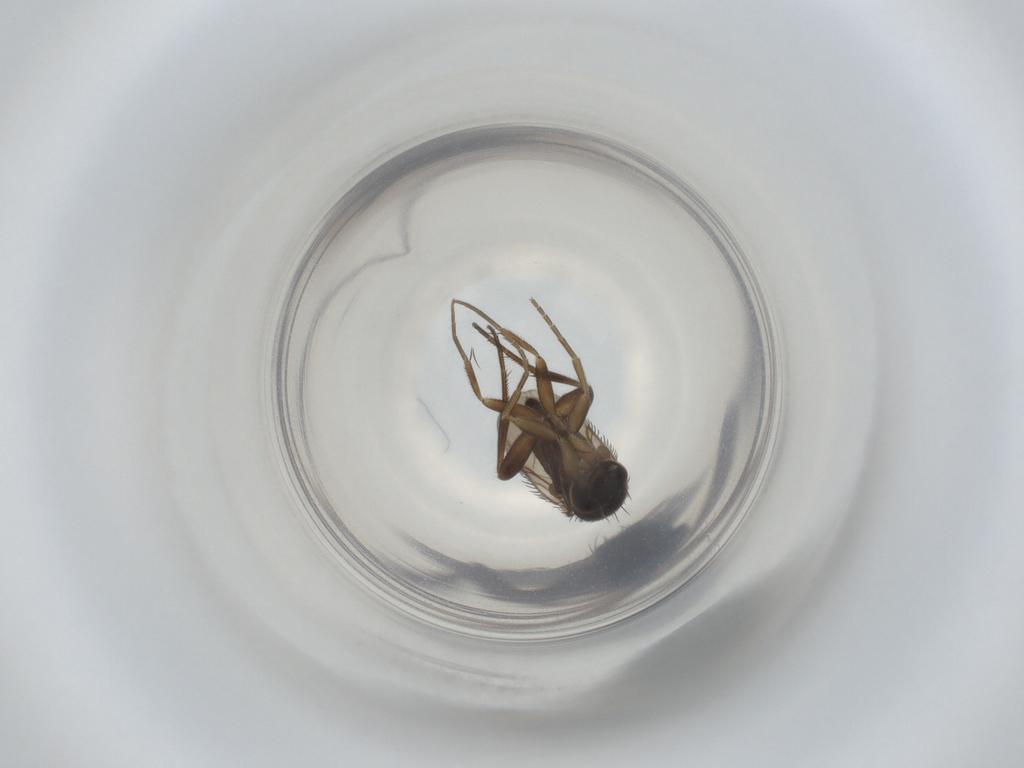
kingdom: Animalia
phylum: Arthropoda
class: Insecta
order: Diptera
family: Phoridae
